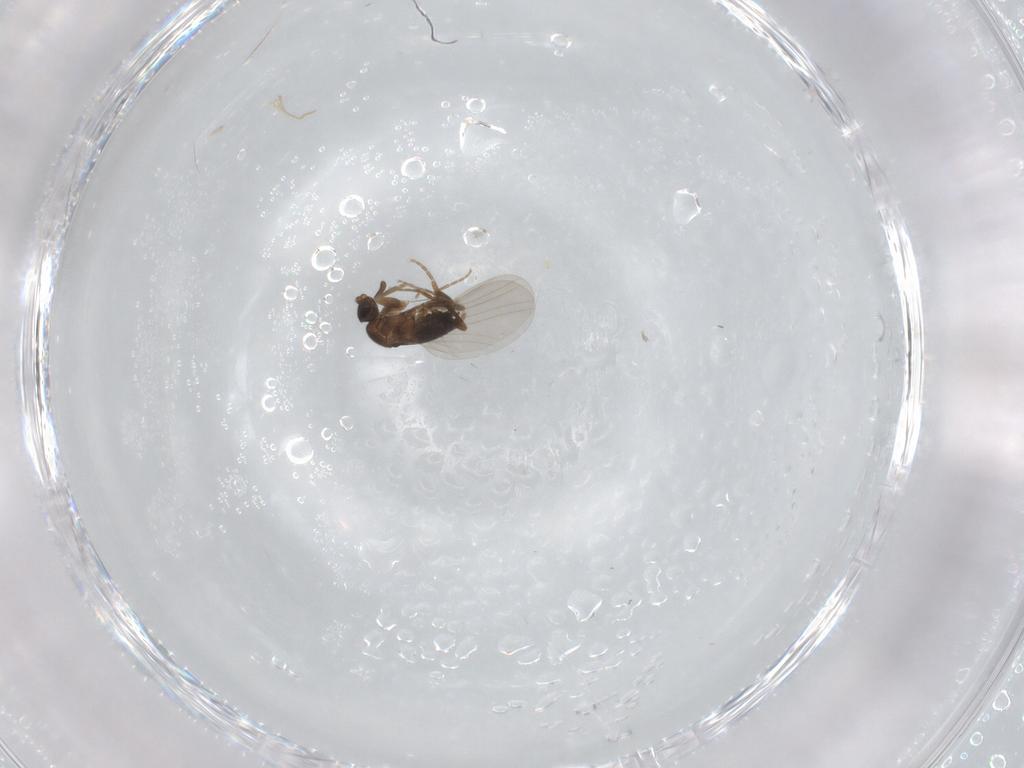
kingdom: Animalia
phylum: Arthropoda
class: Insecta
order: Diptera
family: Phoridae
